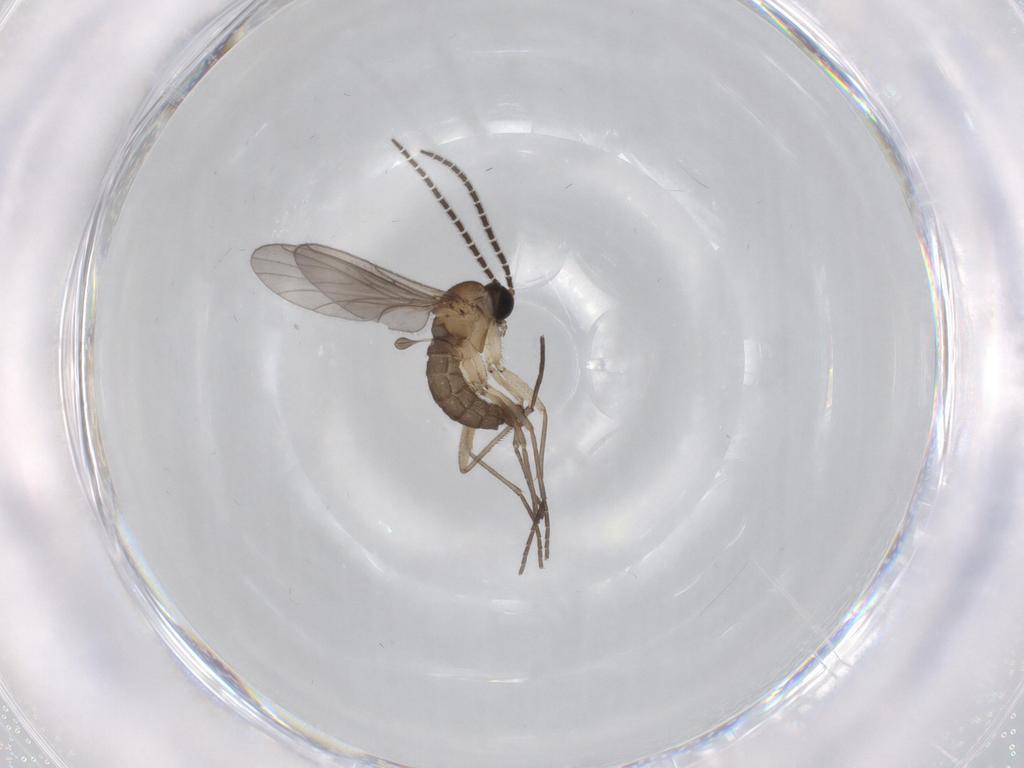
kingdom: Animalia
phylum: Arthropoda
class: Insecta
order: Diptera
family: Sciaridae
